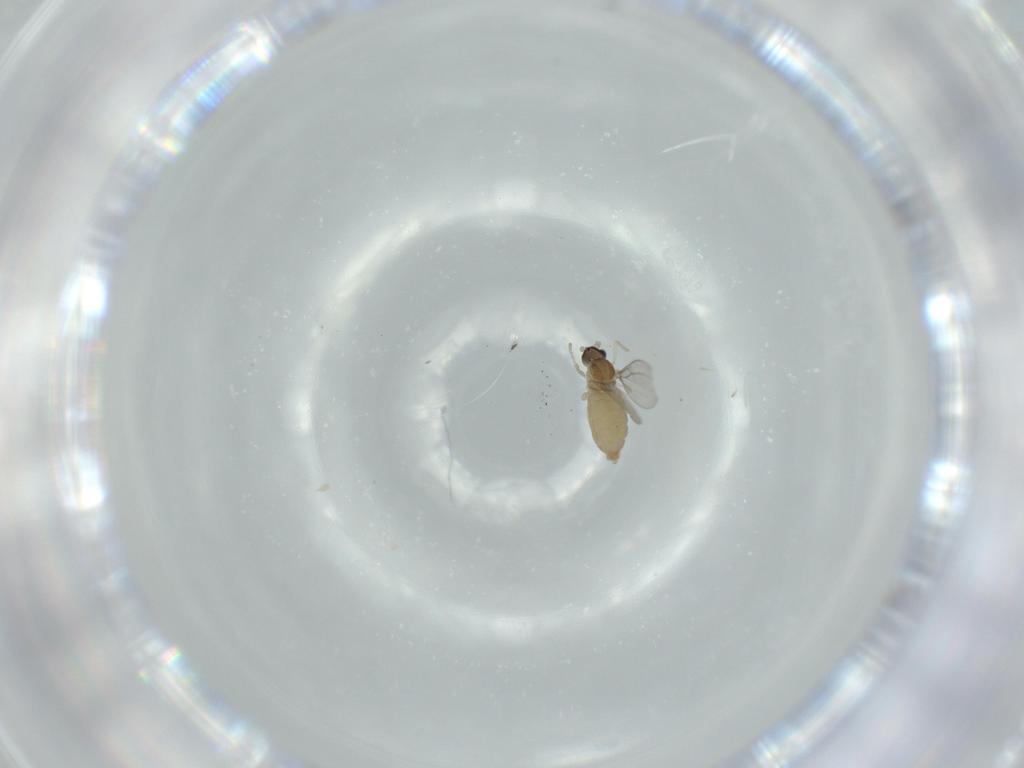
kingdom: Animalia
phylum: Arthropoda
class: Insecta
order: Diptera
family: Cecidomyiidae
